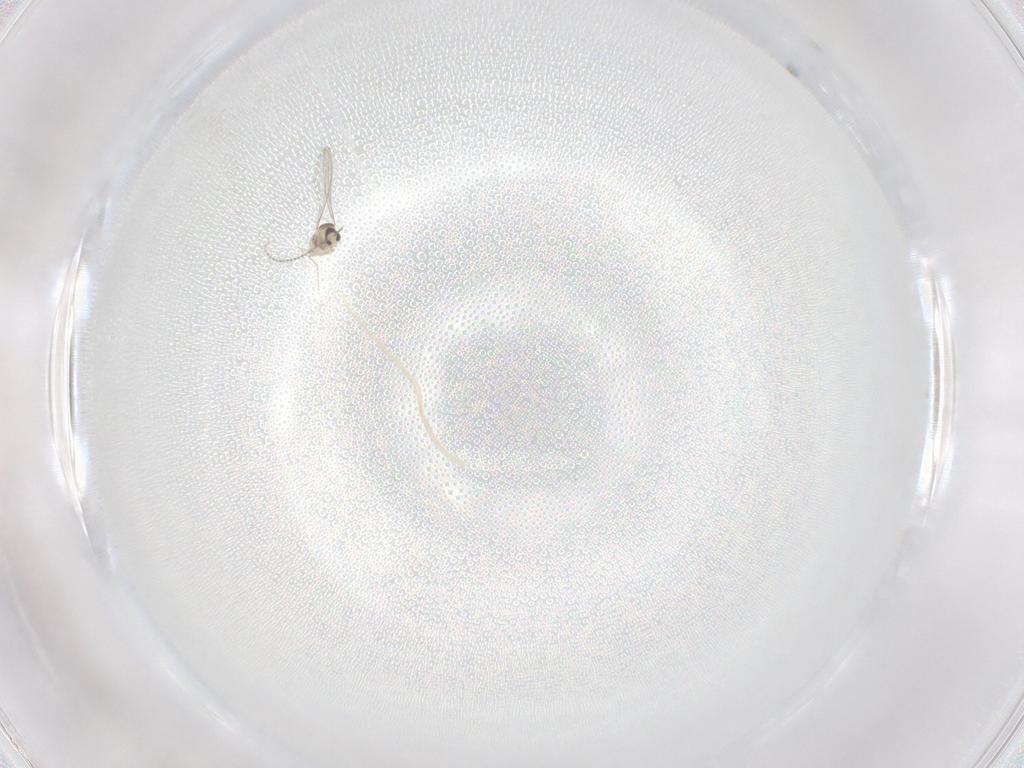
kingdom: Animalia
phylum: Arthropoda
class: Insecta
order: Diptera
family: Cecidomyiidae
